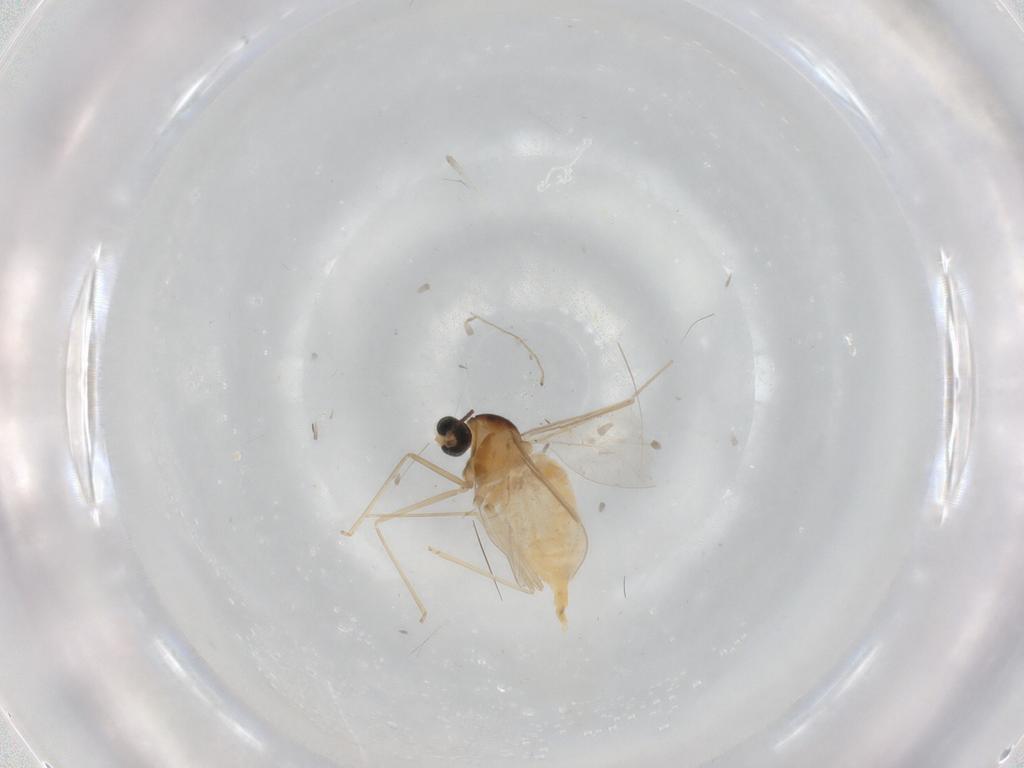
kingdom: Animalia
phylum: Arthropoda
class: Insecta
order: Diptera
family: Cecidomyiidae
